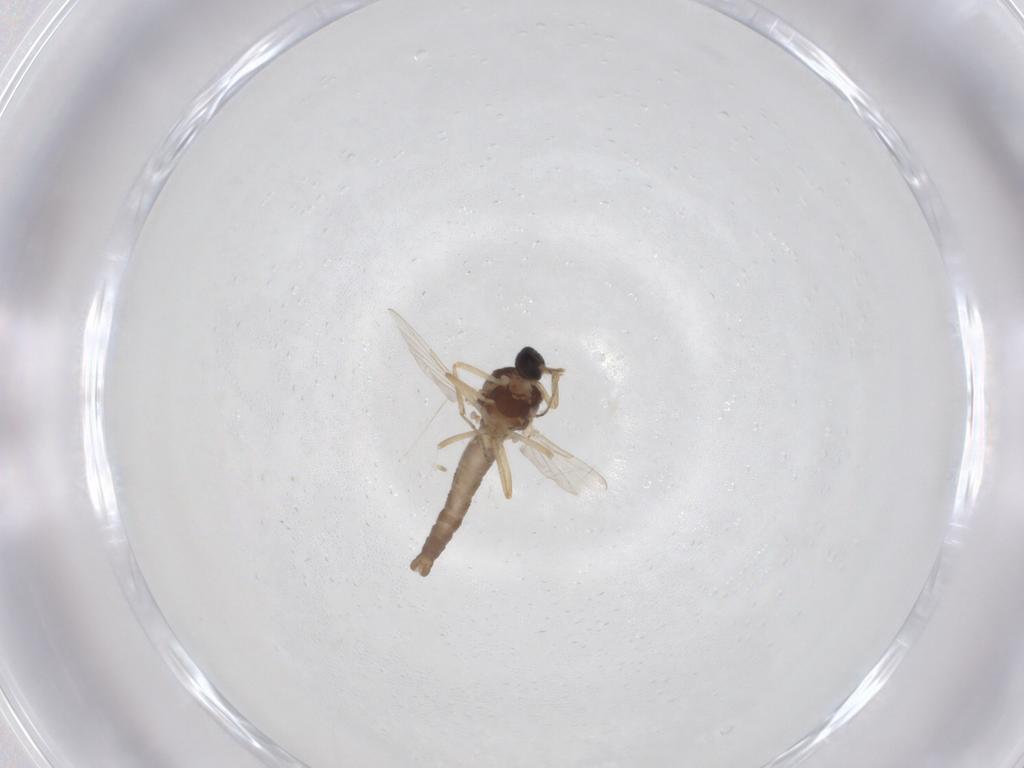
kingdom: Animalia
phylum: Arthropoda
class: Insecta
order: Diptera
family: Ceratopogonidae
